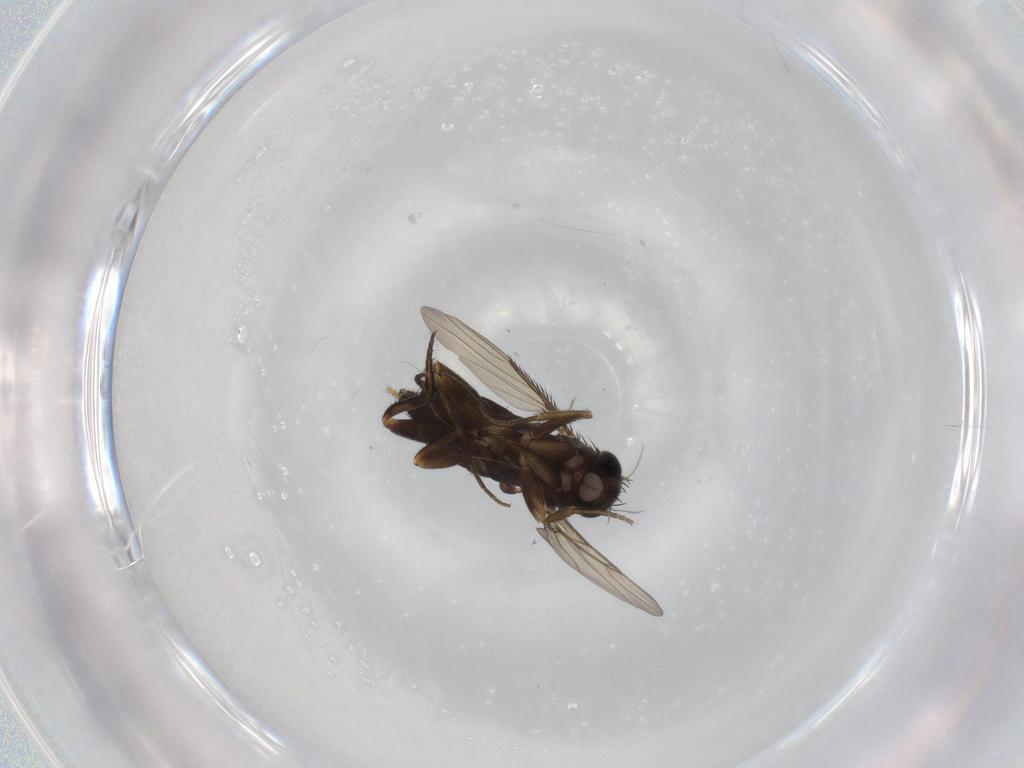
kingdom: Animalia
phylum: Arthropoda
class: Insecta
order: Diptera
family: Phoridae
